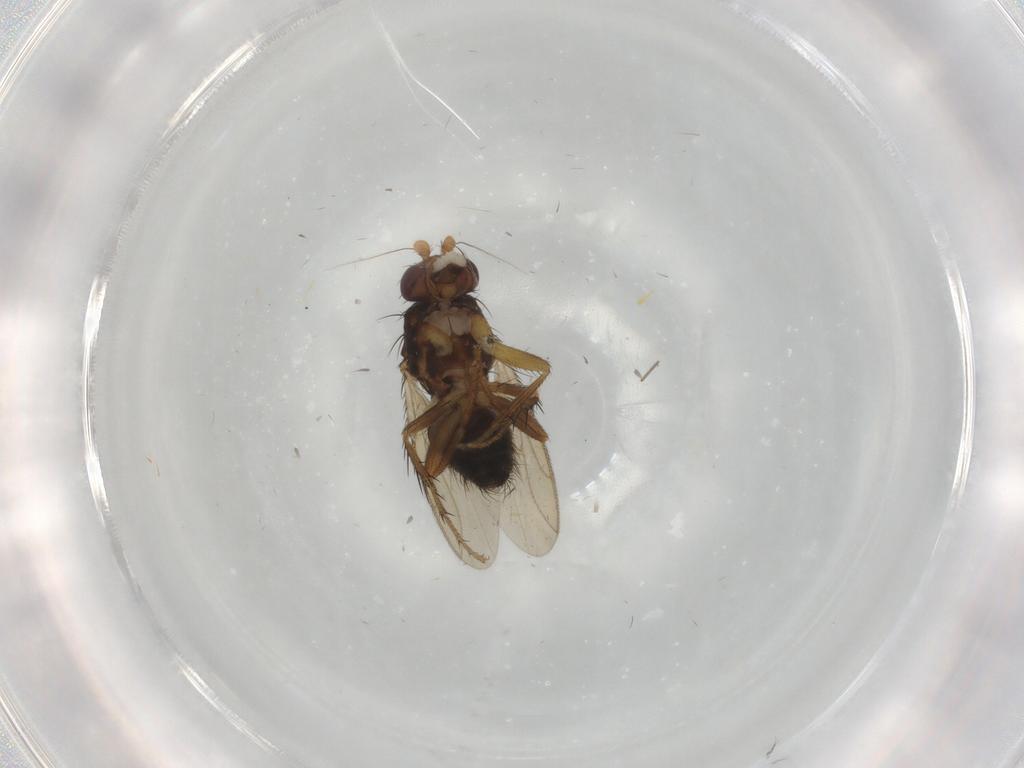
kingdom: Animalia
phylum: Arthropoda
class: Insecta
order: Diptera
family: Sphaeroceridae
